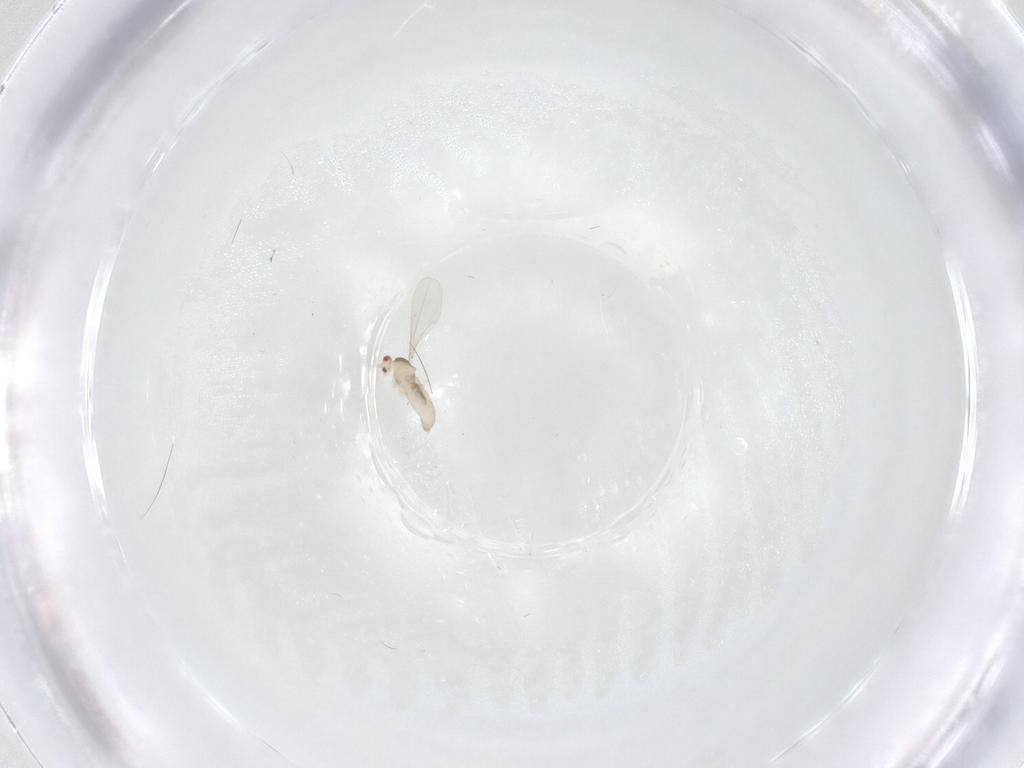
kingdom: Animalia
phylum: Arthropoda
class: Insecta
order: Diptera
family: Cecidomyiidae
